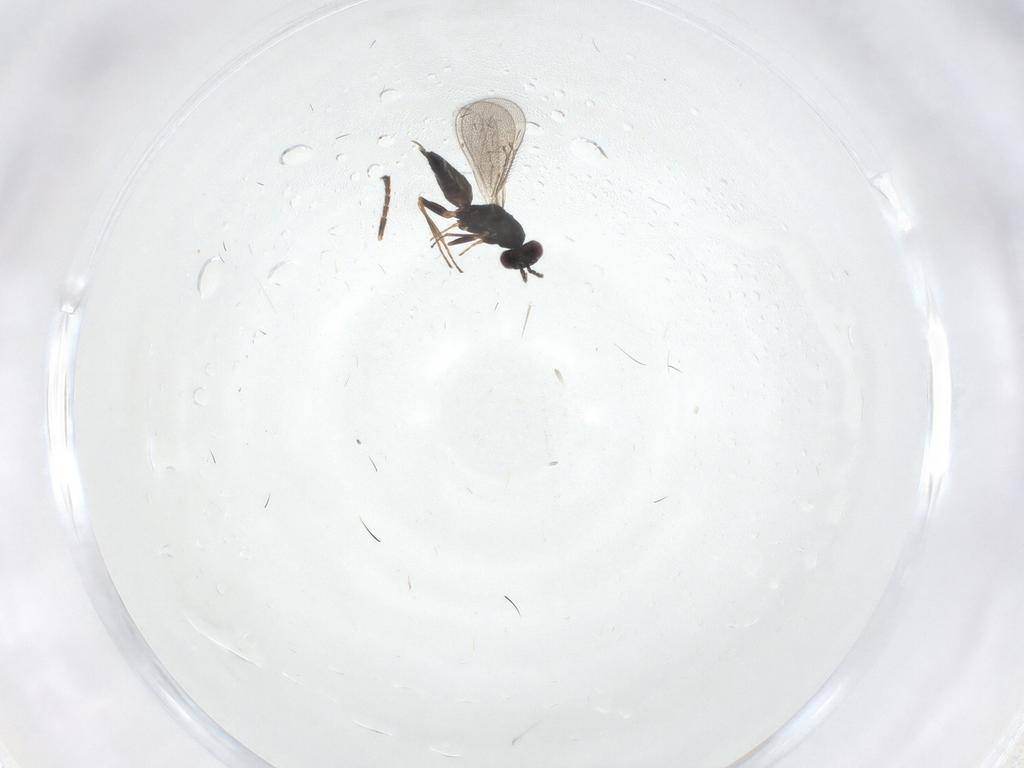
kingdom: Animalia
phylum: Arthropoda
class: Insecta
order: Hymenoptera
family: Eulophidae
